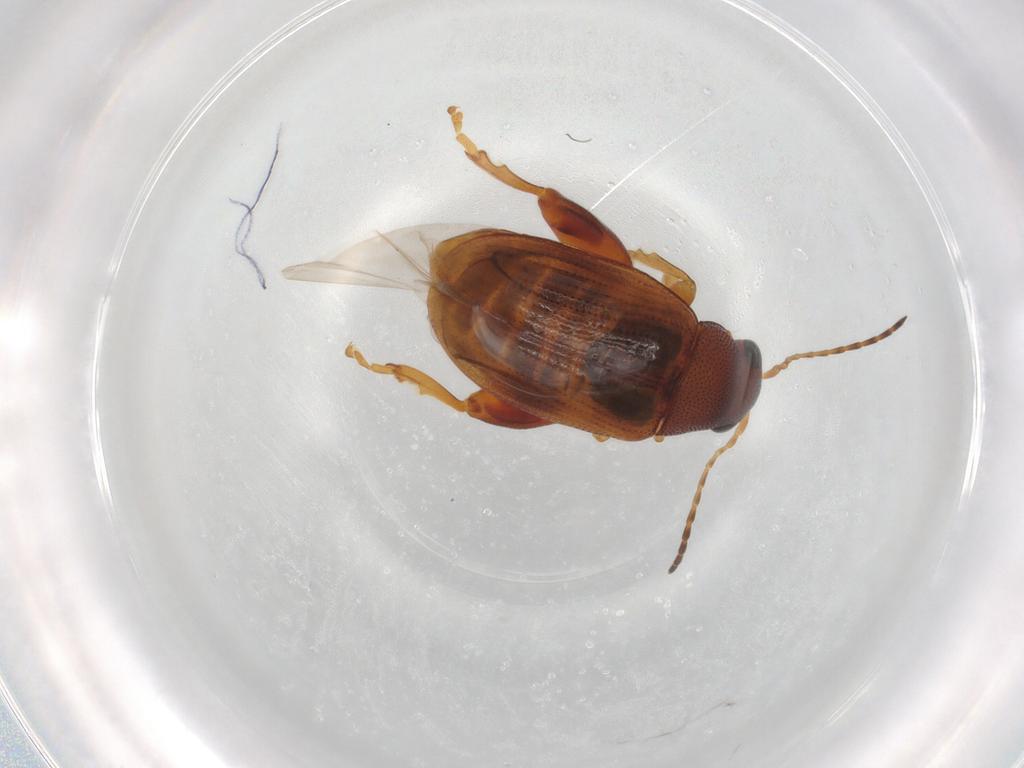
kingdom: Animalia
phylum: Arthropoda
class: Insecta
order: Coleoptera
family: Chrysomelidae
